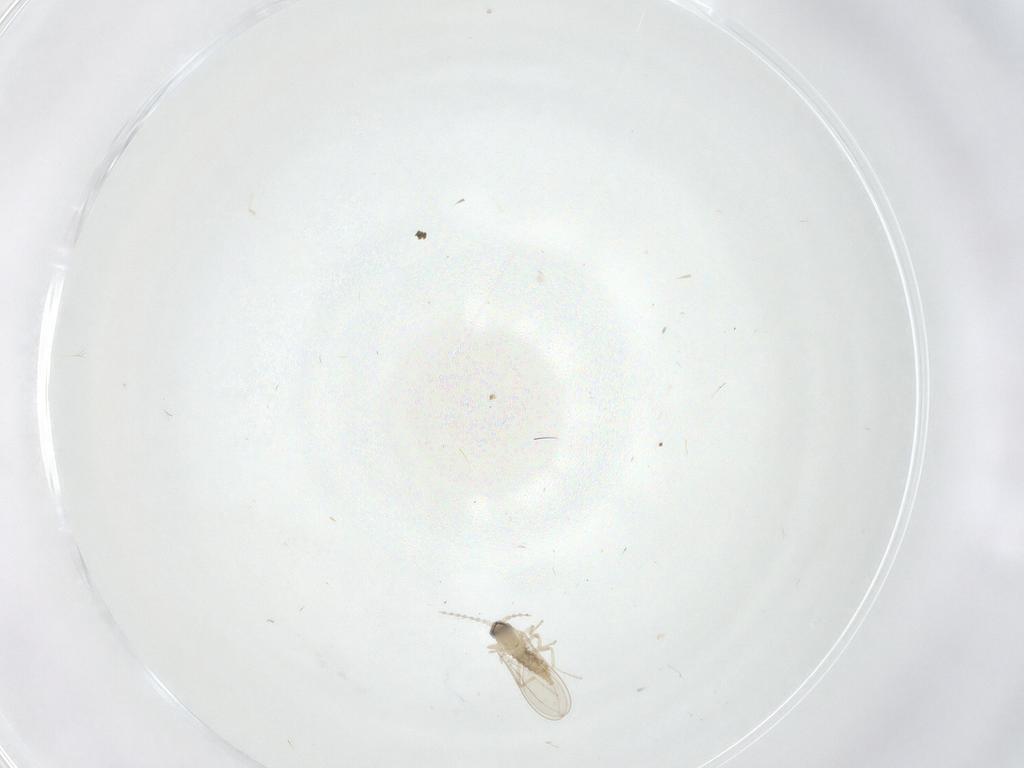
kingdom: Animalia
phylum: Arthropoda
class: Insecta
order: Diptera
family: Cecidomyiidae
